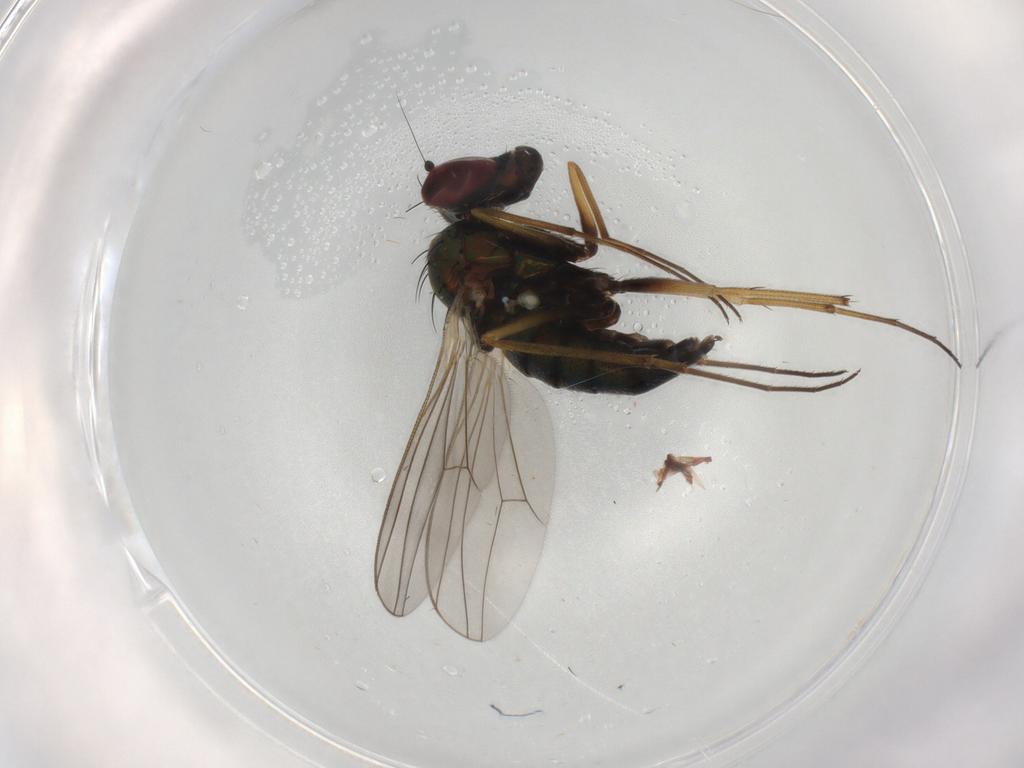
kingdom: Animalia
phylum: Arthropoda
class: Insecta
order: Diptera
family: Dolichopodidae
